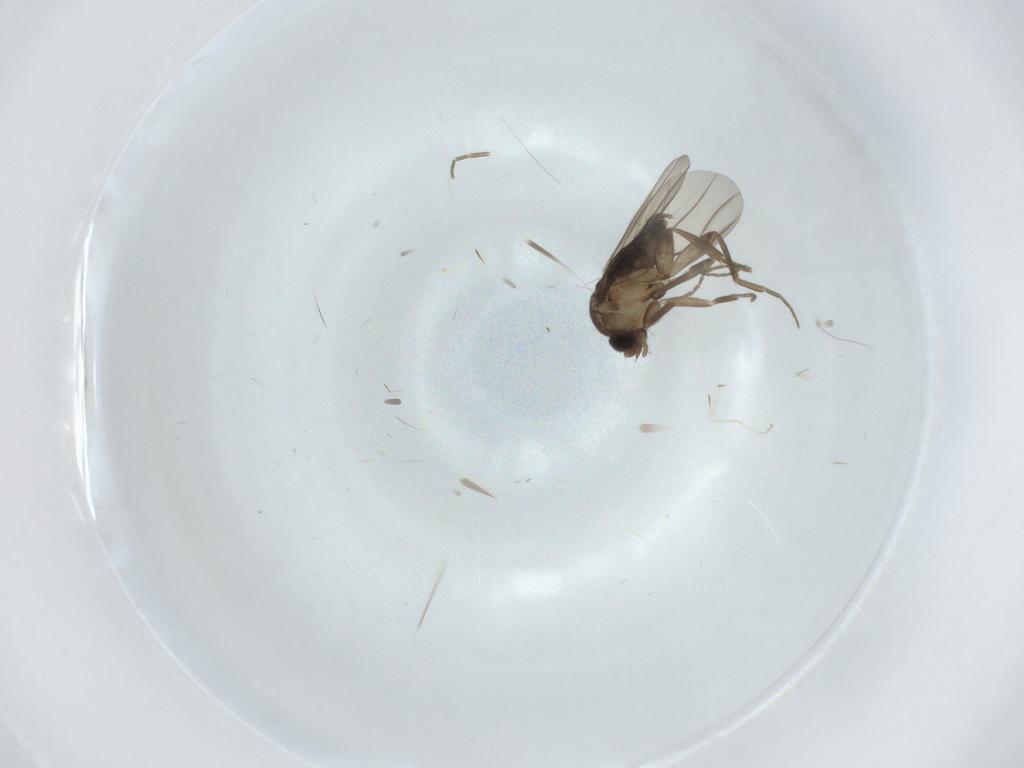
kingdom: Animalia
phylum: Arthropoda
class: Insecta
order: Diptera
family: Phoridae
